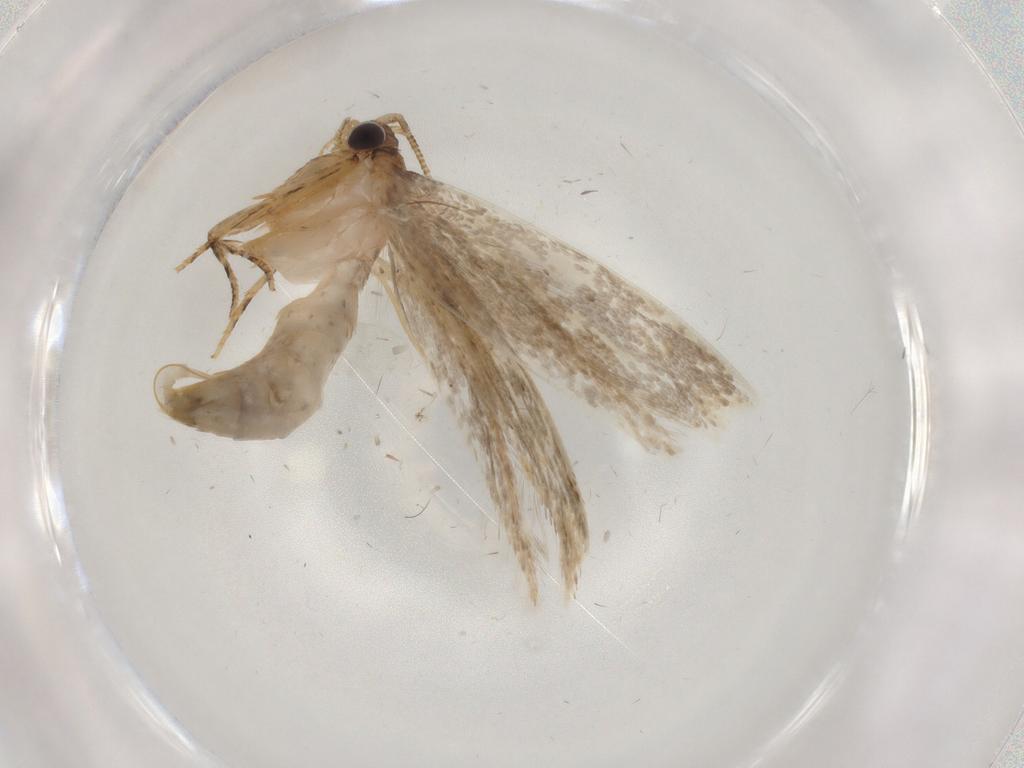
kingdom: Animalia
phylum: Arthropoda
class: Insecta
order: Lepidoptera
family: Tineidae
